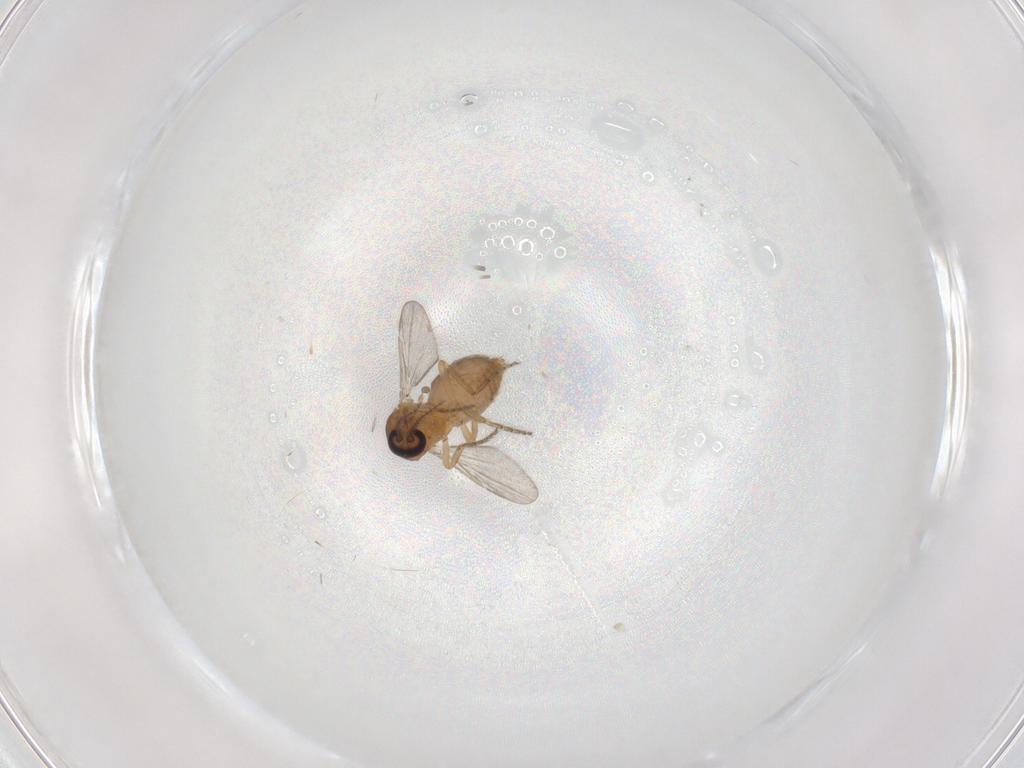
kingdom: Animalia
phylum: Arthropoda
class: Insecta
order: Diptera
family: Ceratopogonidae
